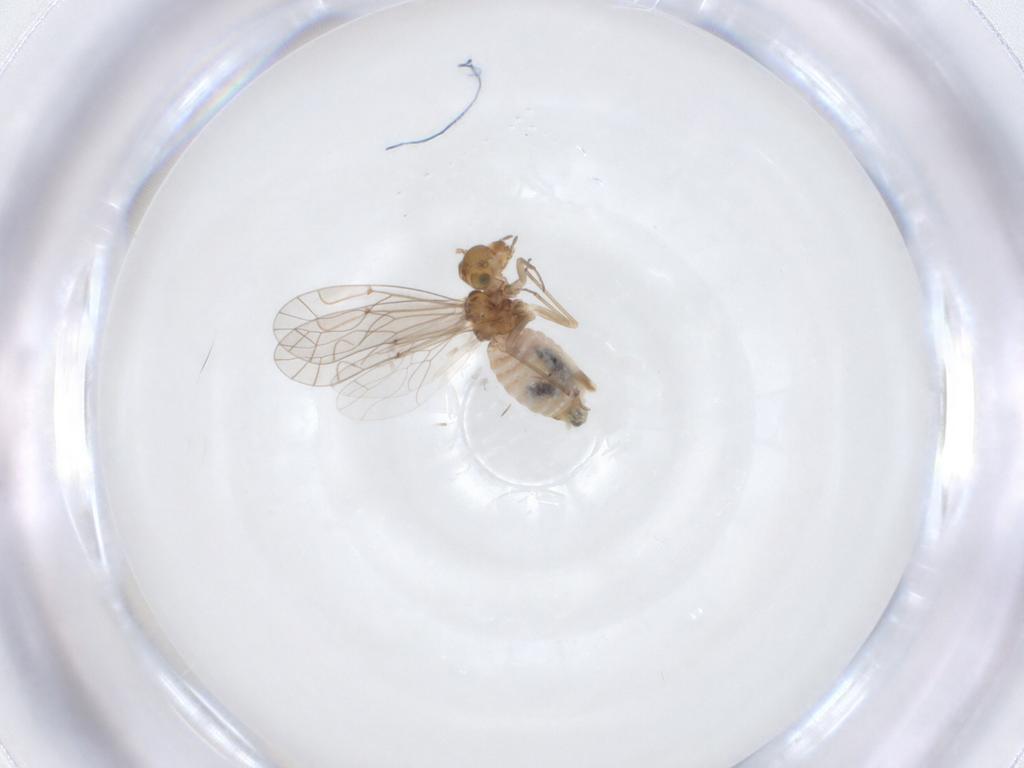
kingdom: Animalia
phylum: Arthropoda
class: Insecta
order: Psocodea
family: Lachesillidae
